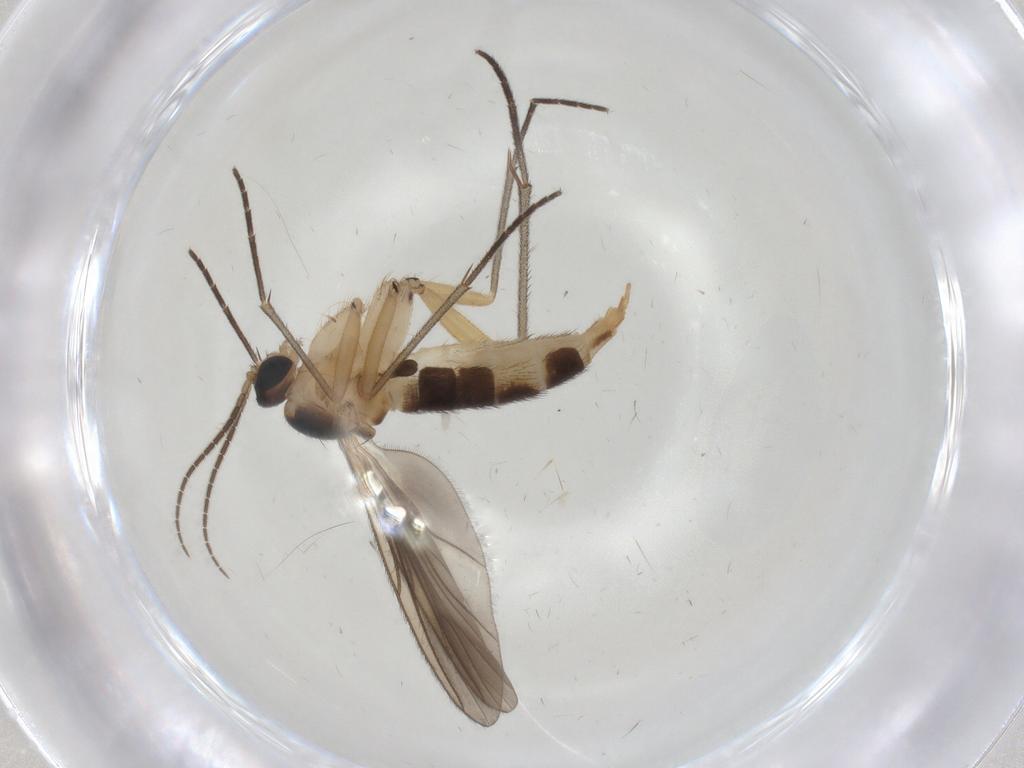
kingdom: Animalia
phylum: Arthropoda
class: Insecta
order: Diptera
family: Sciaridae
